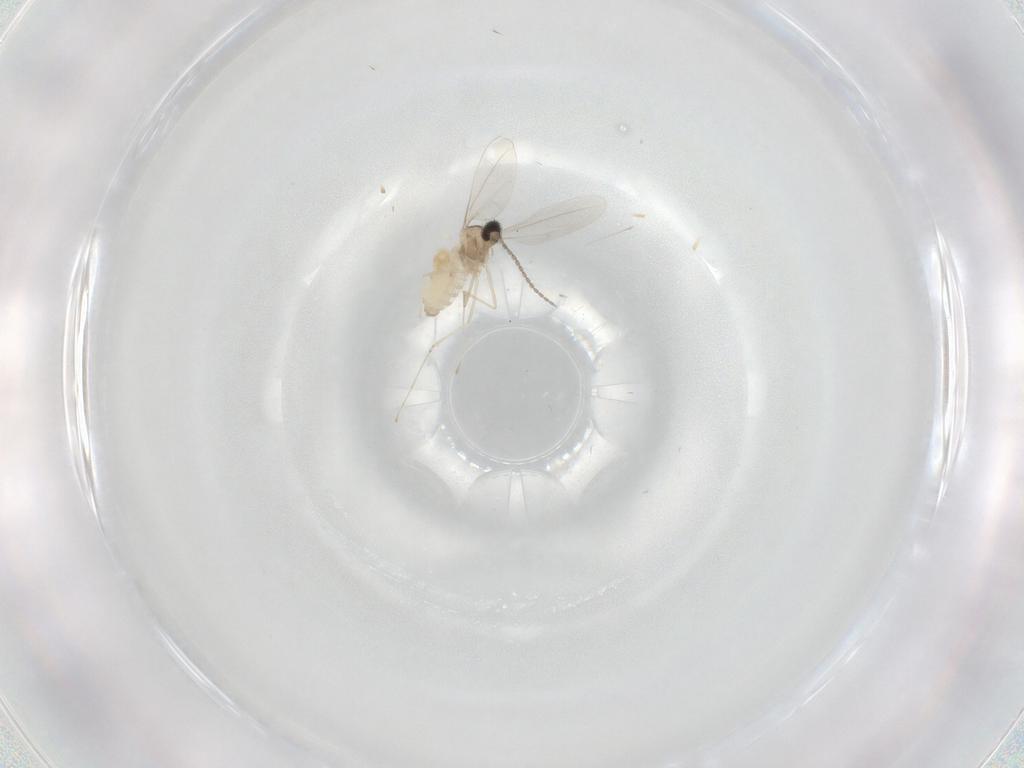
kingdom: Animalia
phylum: Arthropoda
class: Insecta
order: Diptera
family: Cecidomyiidae
